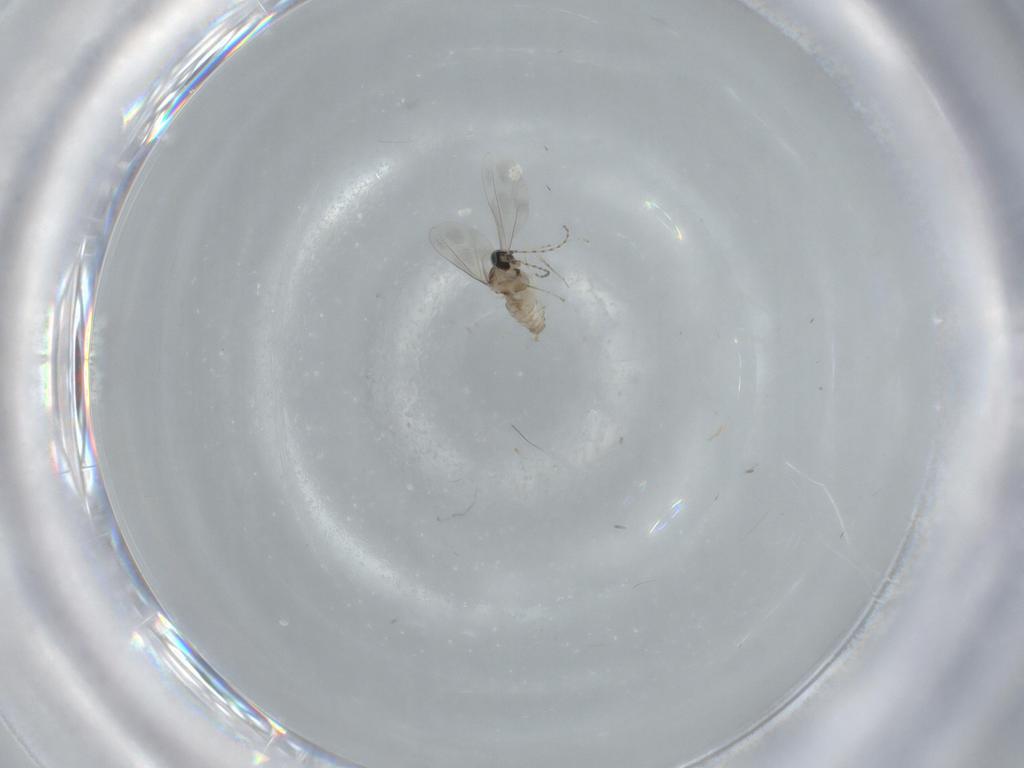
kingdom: Animalia
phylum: Arthropoda
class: Insecta
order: Diptera
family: Cecidomyiidae
